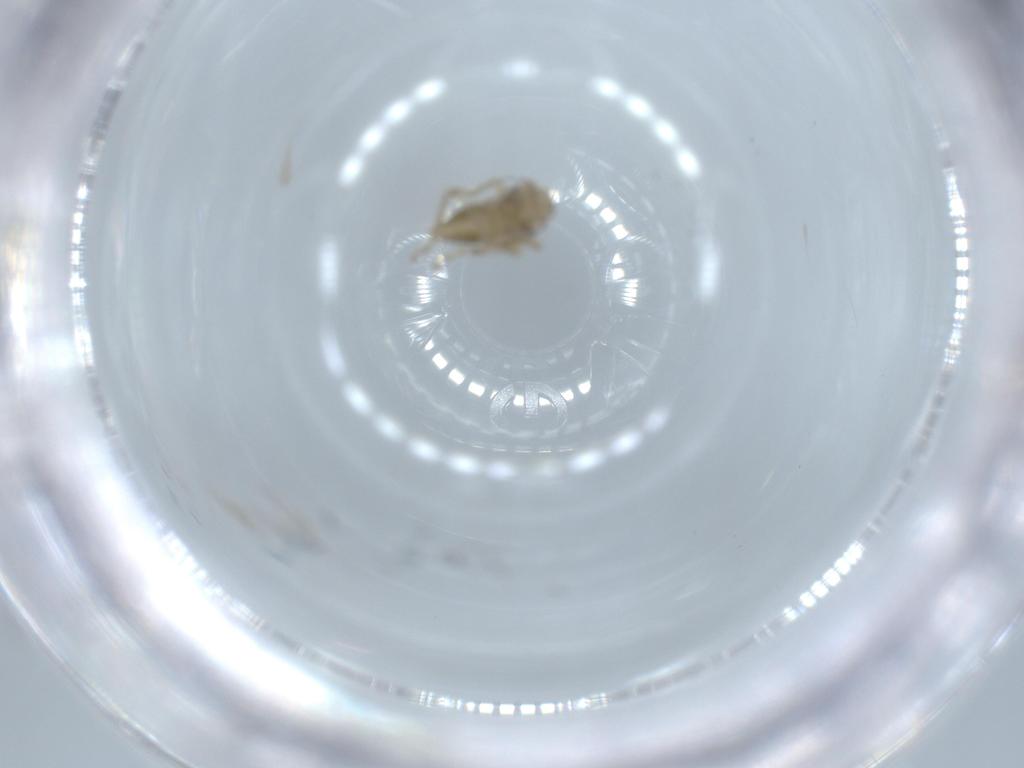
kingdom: Animalia
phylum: Arthropoda
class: Insecta
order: Hemiptera
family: Cicadellidae
